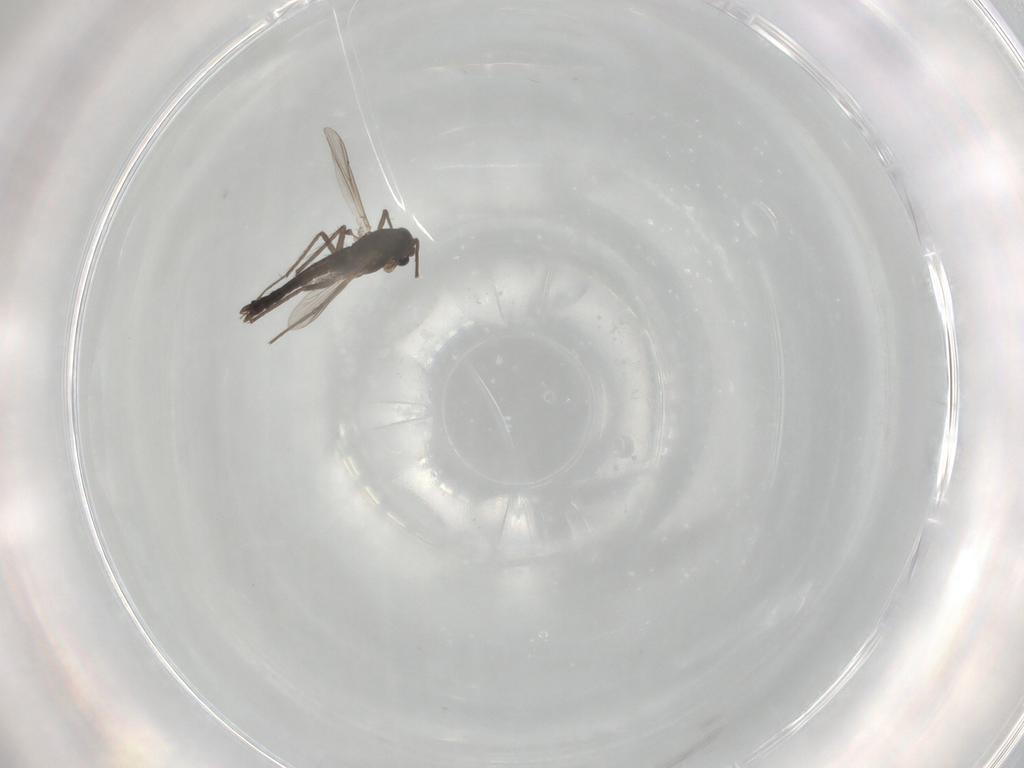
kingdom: Animalia
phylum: Arthropoda
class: Insecta
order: Diptera
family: Chironomidae
